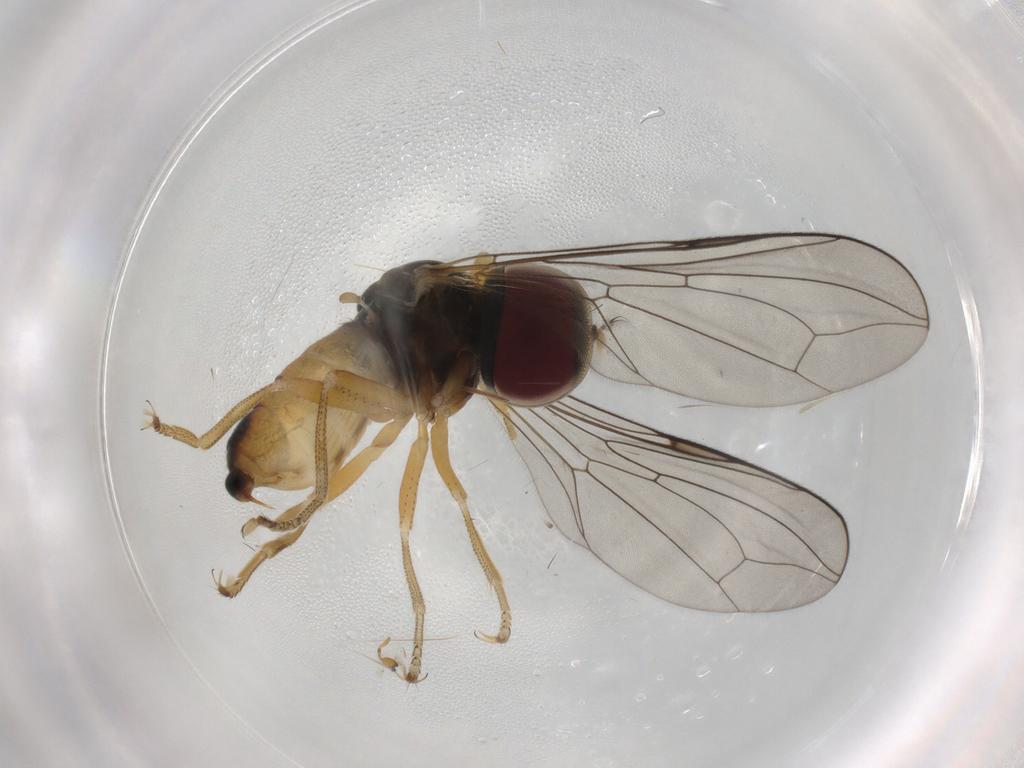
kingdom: Animalia
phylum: Arthropoda
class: Insecta
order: Diptera
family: Pipunculidae
